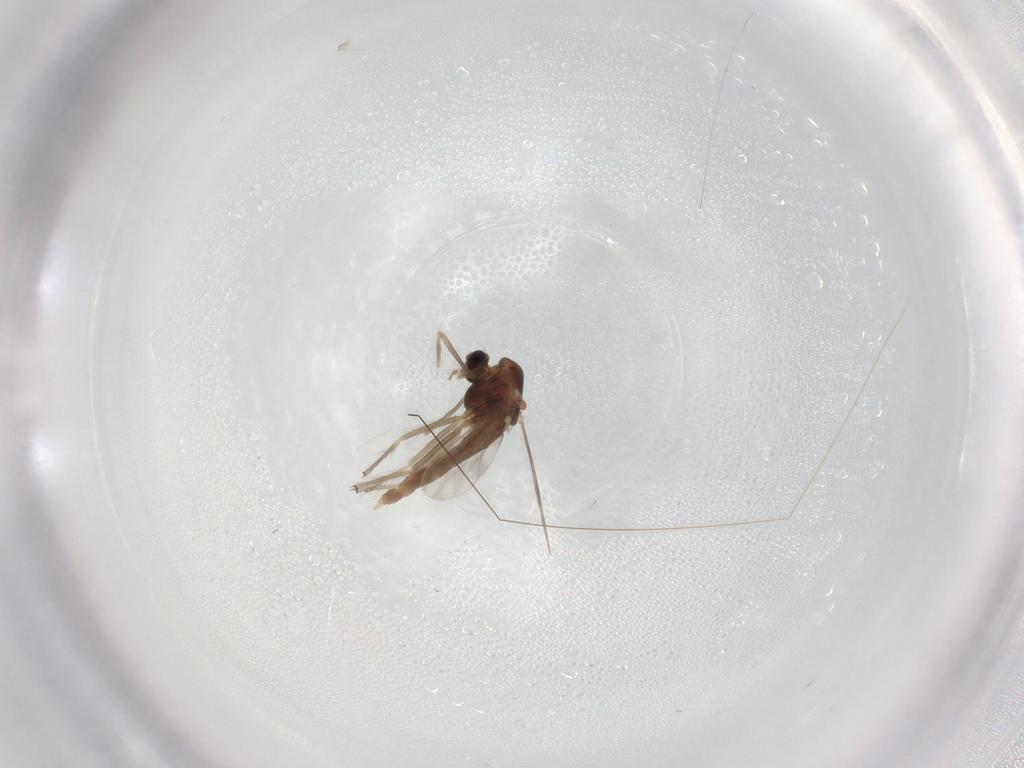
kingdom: Animalia
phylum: Arthropoda
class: Insecta
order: Diptera
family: Chironomidae
